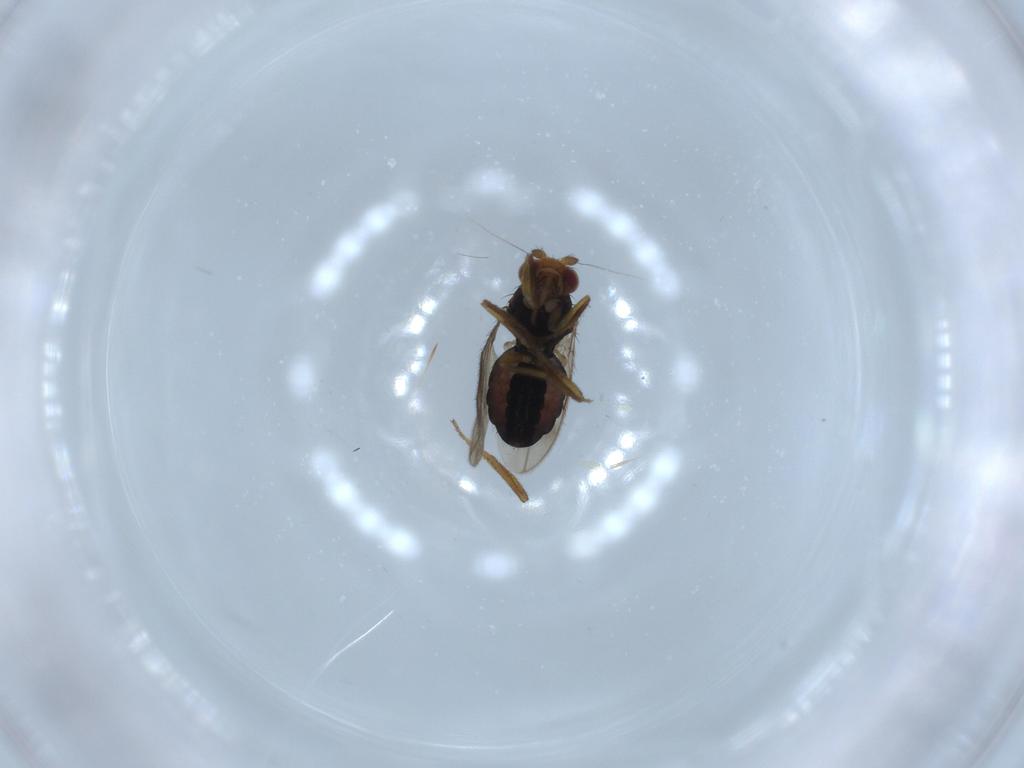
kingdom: Animalia
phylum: Arthropoda
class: Insecta
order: Diptera
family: Sphaeroceridae
